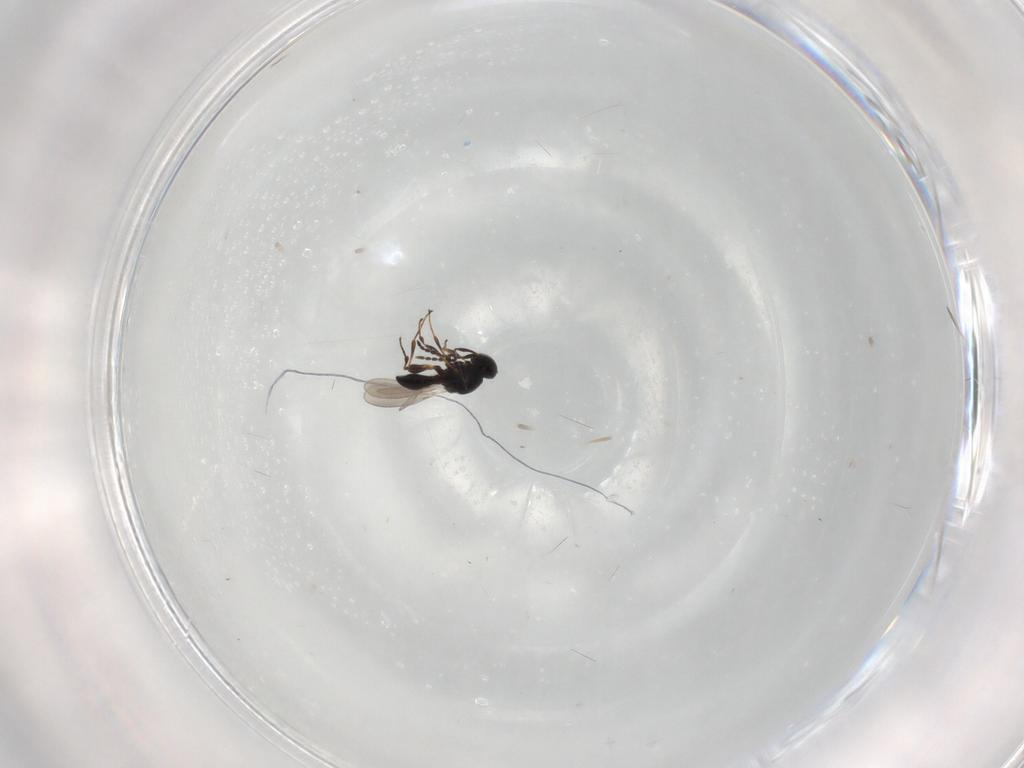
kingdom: Animalia
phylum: Arthropoda
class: Insecta
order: Hymenoptera
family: Platygastridae
